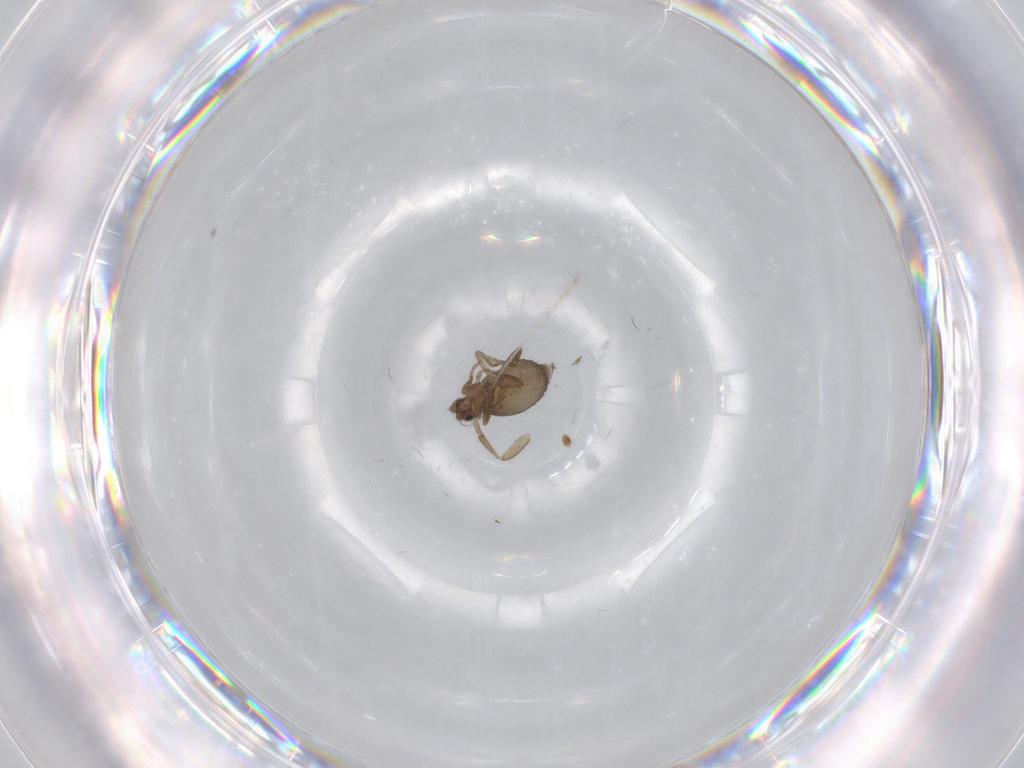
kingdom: Animalia
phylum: Arthropoda
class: Insecta
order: Diptera
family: Cecidomyiidae
